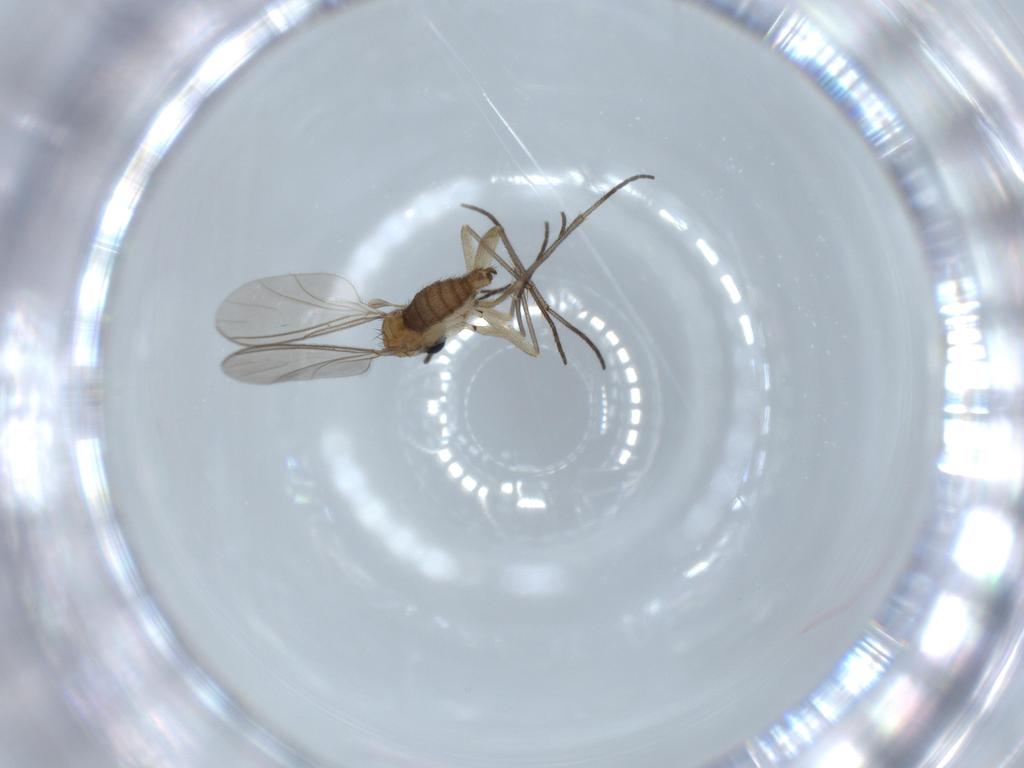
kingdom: Animalia
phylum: Arthropoda
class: Insecta
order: Diptera
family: Sciaridae
